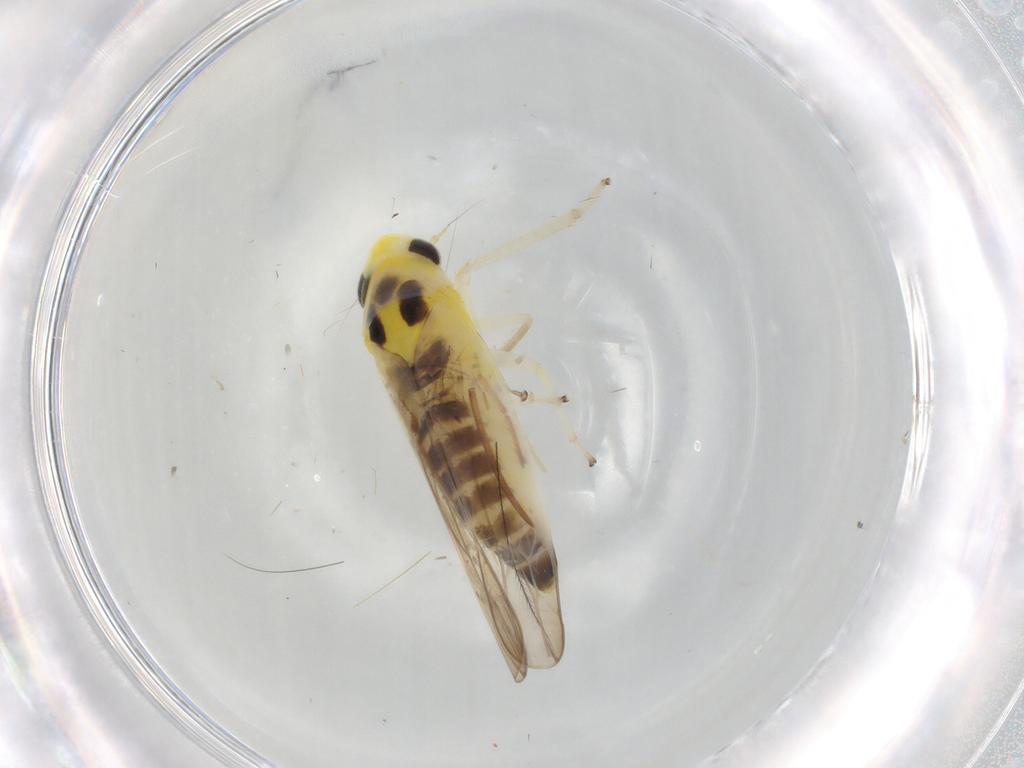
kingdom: Animalia
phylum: Arthropoda
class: Insecta
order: Hemiptera
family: Cicadellidae
